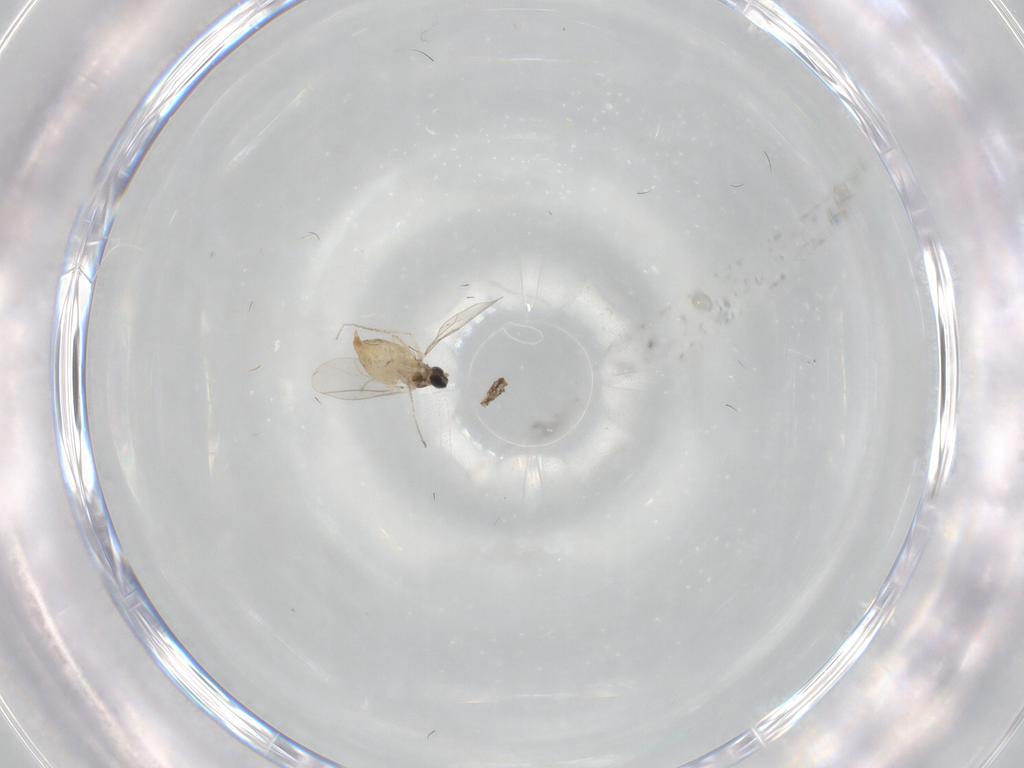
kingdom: Animalia
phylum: Arthropoda
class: Insecta
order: Diptera
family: Cecidomyiidae
